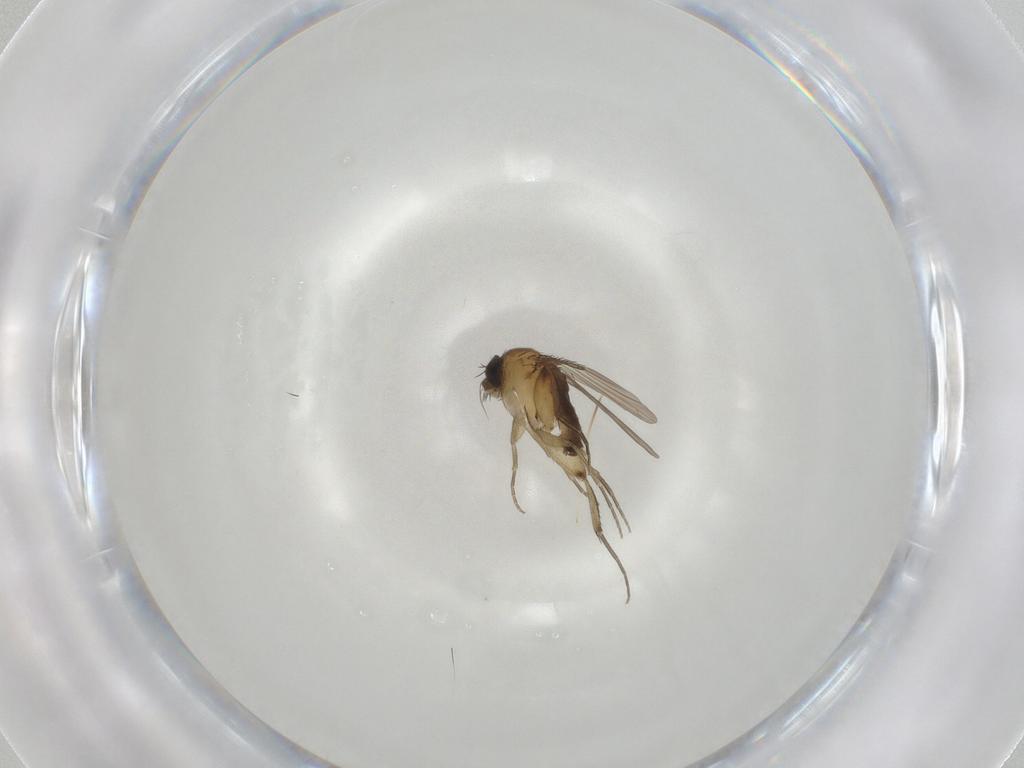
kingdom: Animalia
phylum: Arthropoda
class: Insecta
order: Diptera
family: Phoridae
